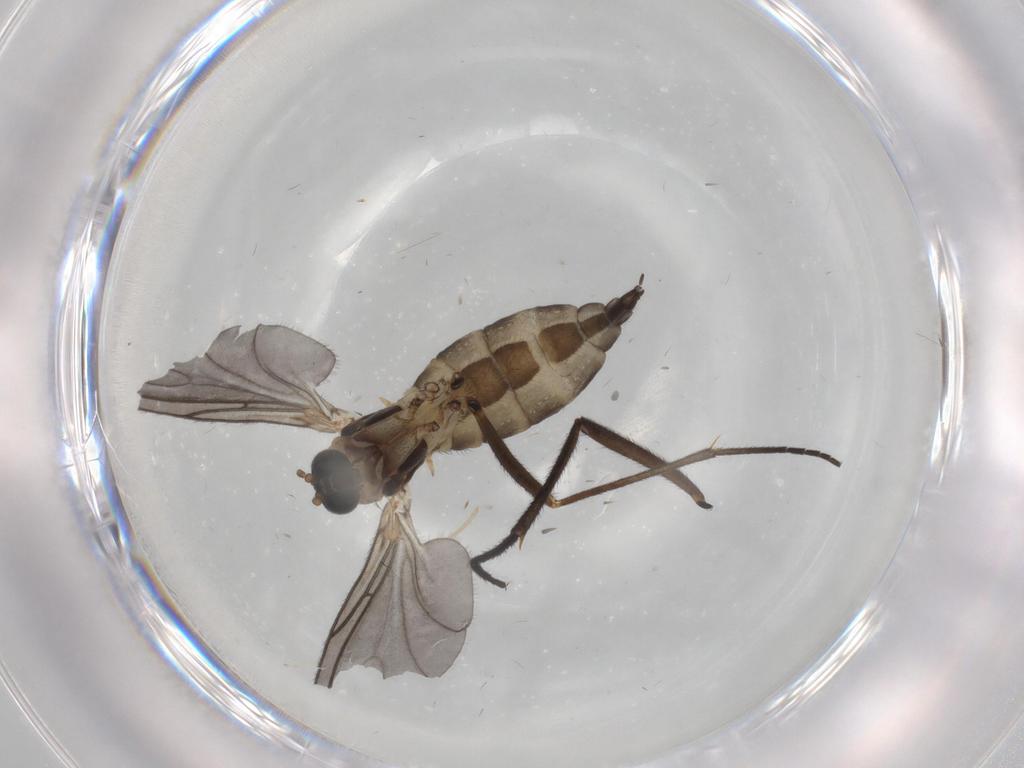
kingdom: Animalia
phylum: Arthropoda
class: Insecta
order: Diptera
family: Sciaridae
